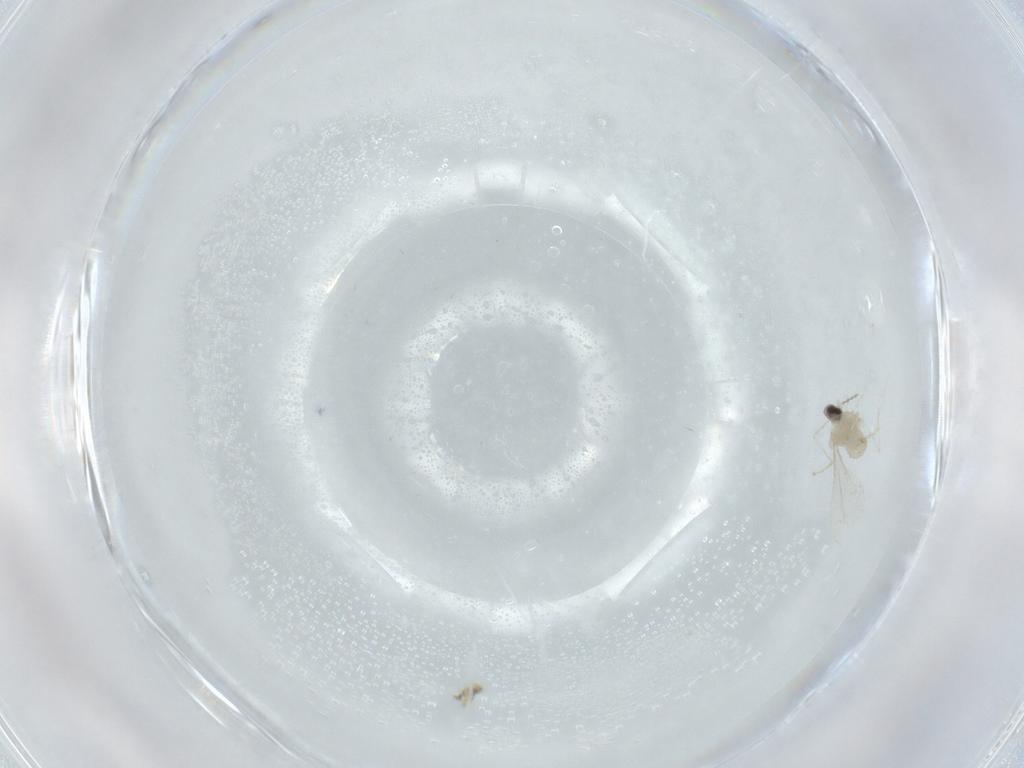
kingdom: Animalia
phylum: Arthropoda
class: Insecta
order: Diptera
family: Cecidomyiidae
